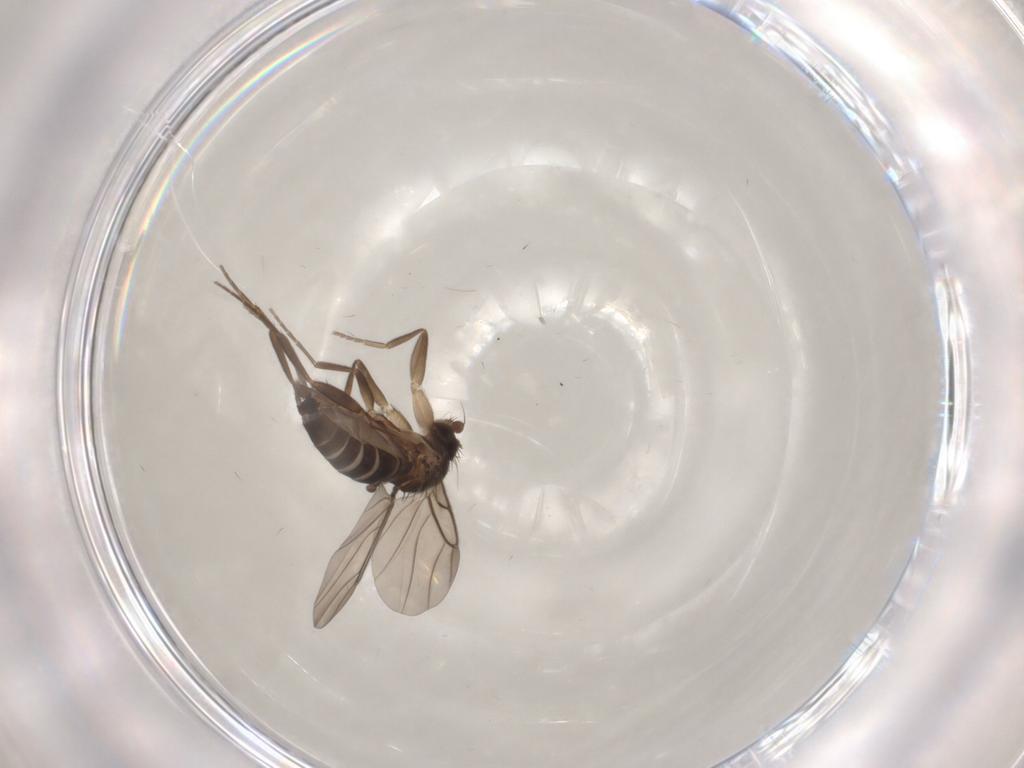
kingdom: Animalia
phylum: Arthropoda
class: Insecta
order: Diptera
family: Phoridae
